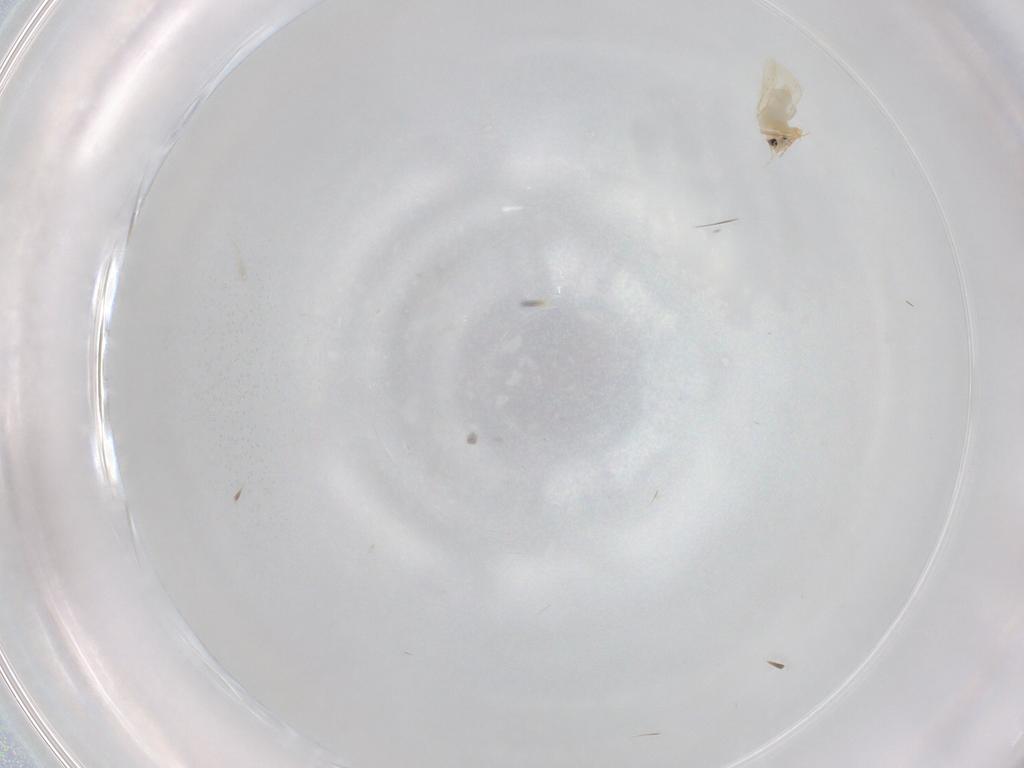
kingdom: Animalia
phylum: Arthropoda
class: Insecta
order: Hemiptera
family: Aleyrodidae
